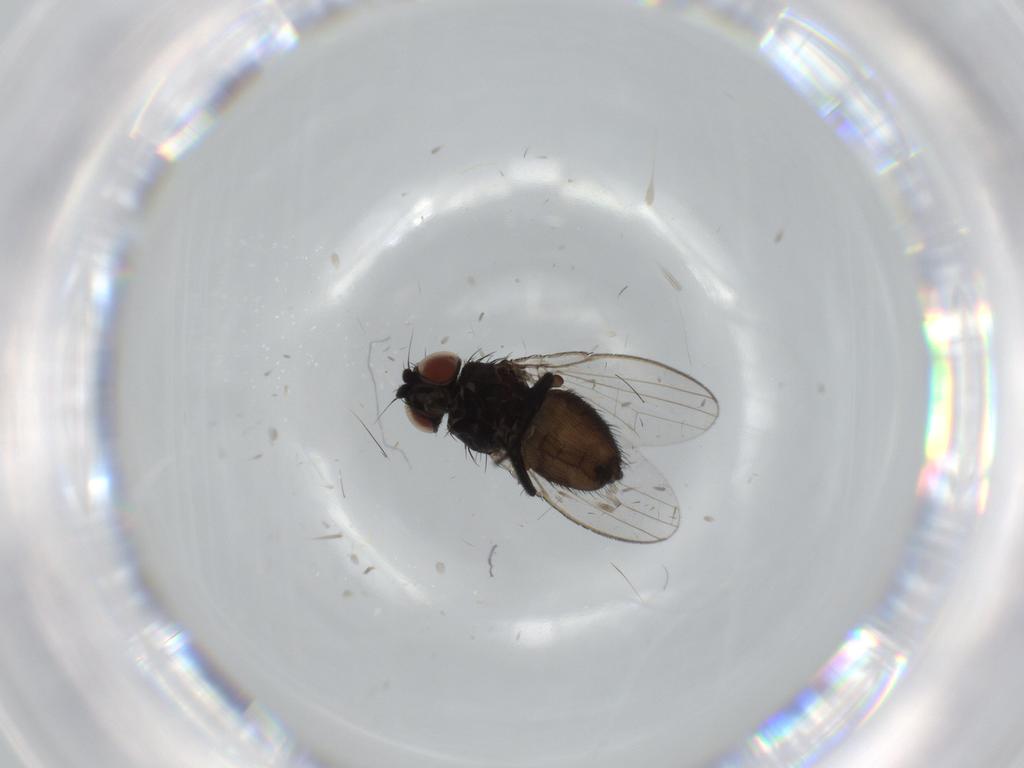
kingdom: Animalia
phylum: Arthropoda
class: Insecta
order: Diptera
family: Milichiidae
